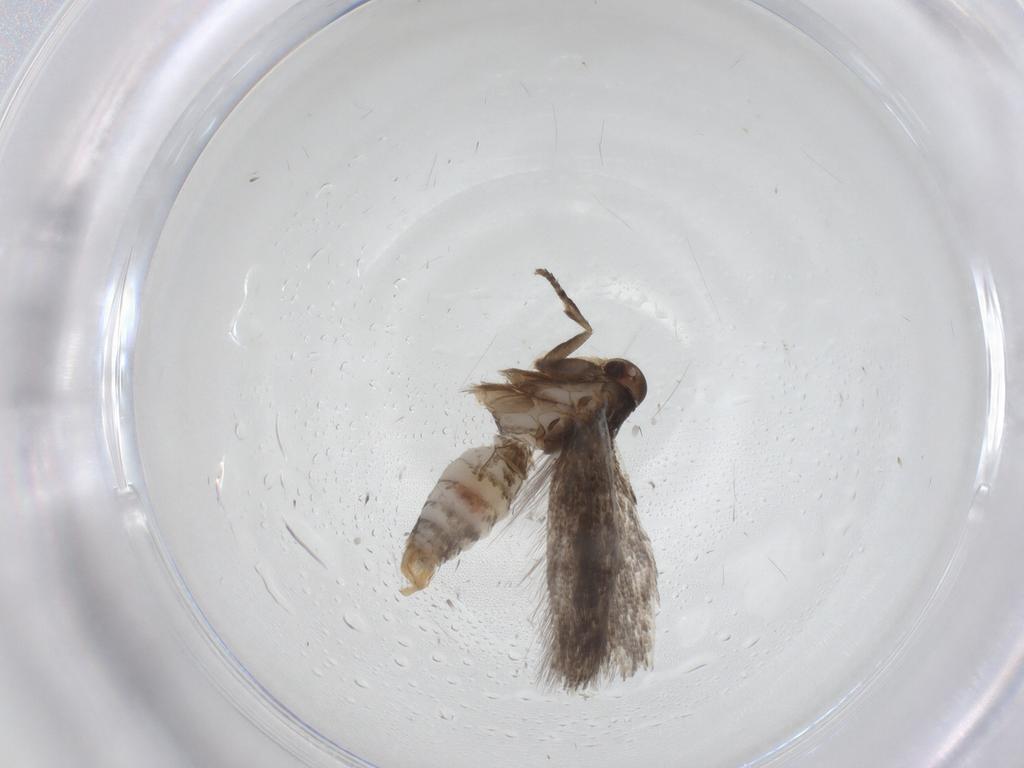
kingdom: Animalia
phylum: Arthropoda
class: Insecta
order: Lepidoptera
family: Elachistidae
